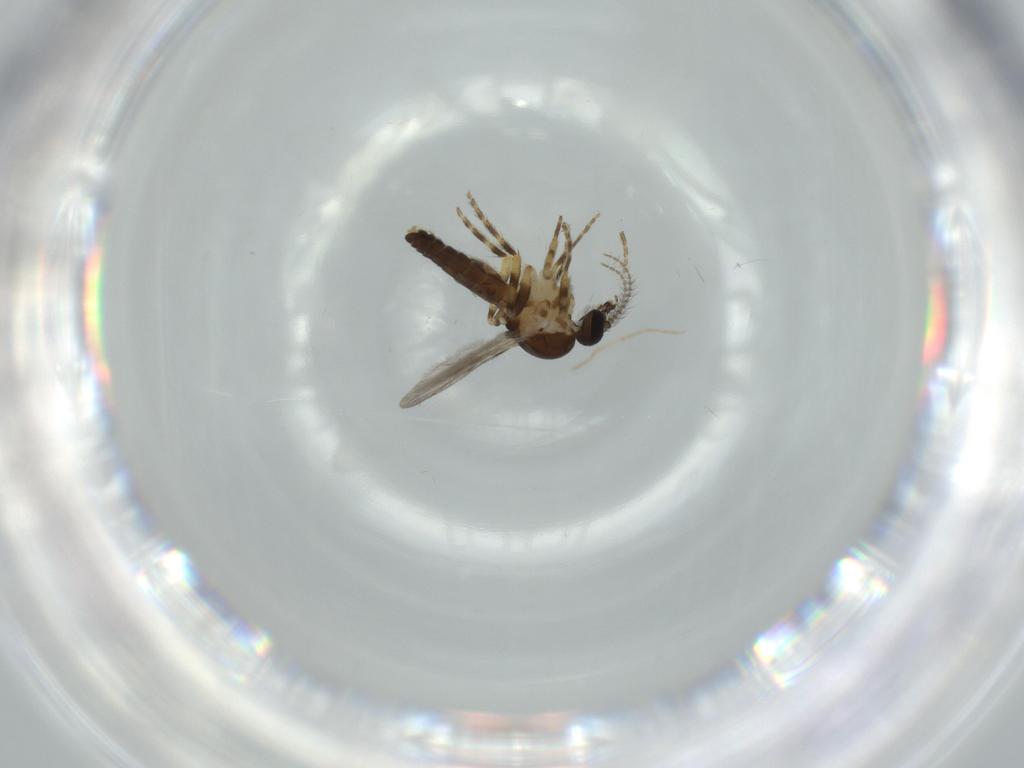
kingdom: Animalia
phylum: Arthropoda
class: Insecta
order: Diptera
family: Ceratopogonidae
